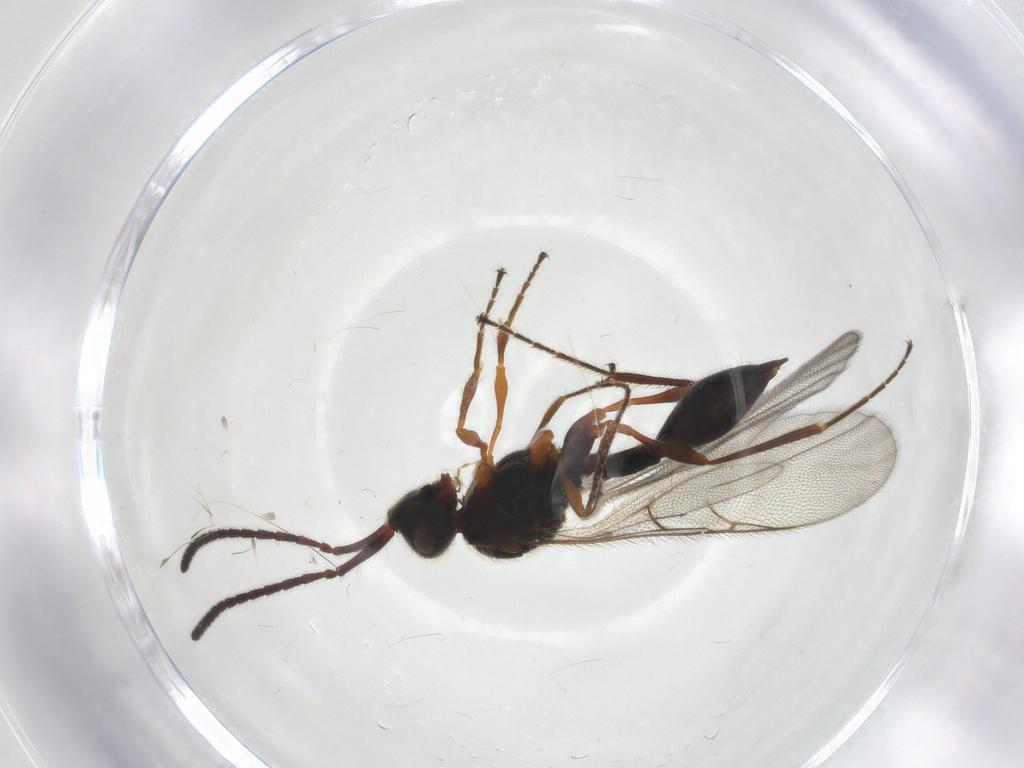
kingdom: Animalia
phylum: Arthropoda
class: Insecta
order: Hymenoptera
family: Diapriidae
